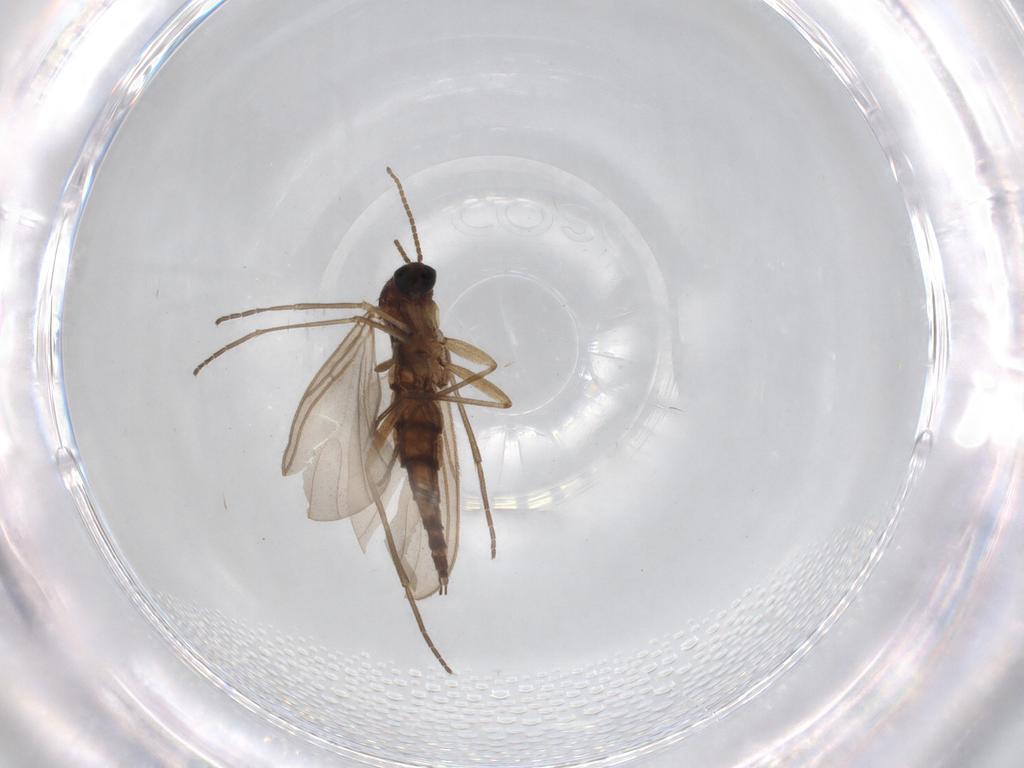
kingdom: Animalia
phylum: Arthropoda
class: Insecta
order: Diptera
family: Sciaridae
